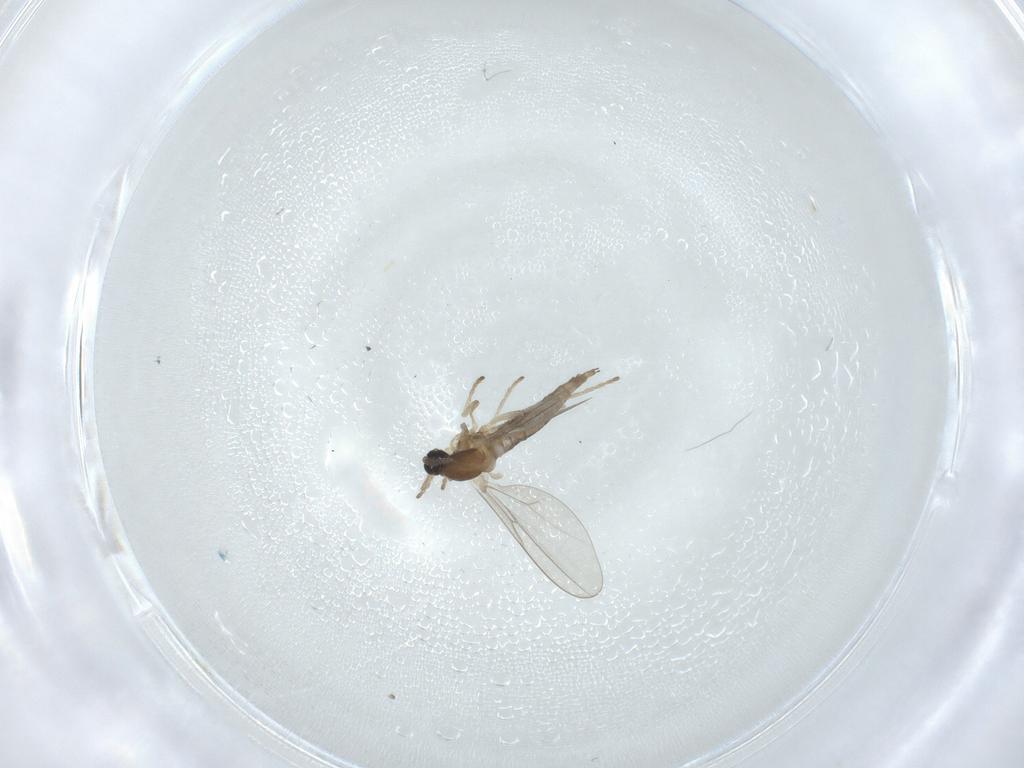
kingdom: Animalia
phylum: Arthropoda
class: Insecta
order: Diptera
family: Cecidomyiidae
